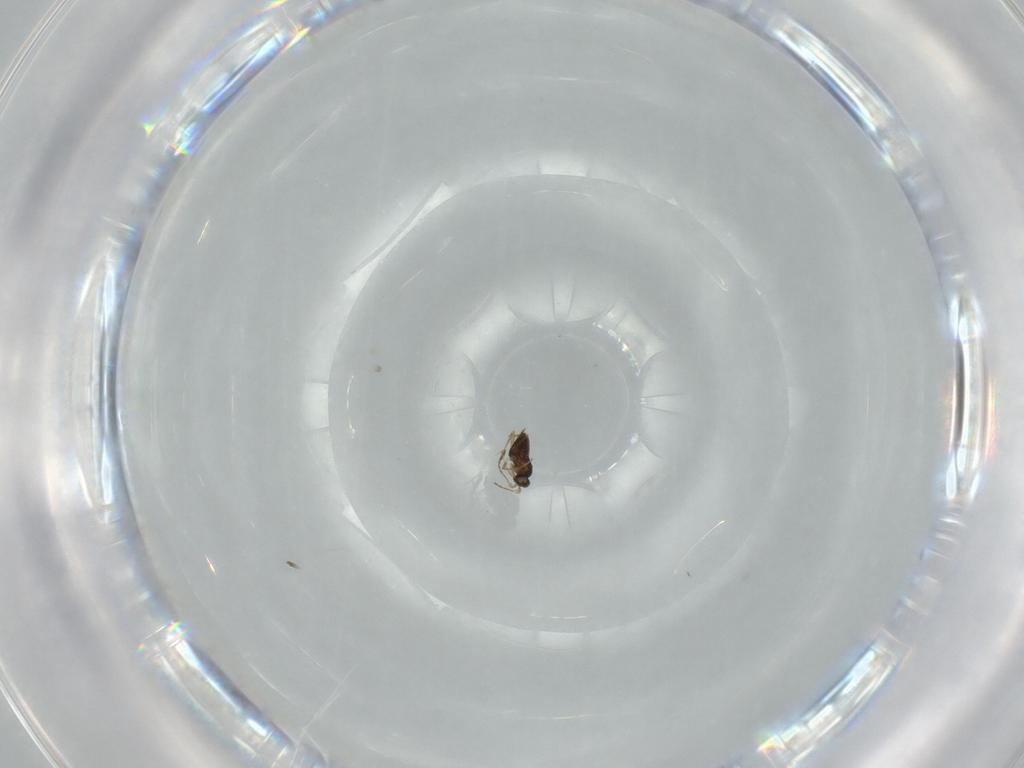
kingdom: Animalia
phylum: Arthropoda
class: Insecta
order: Hymenoptera
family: Mymaridae
